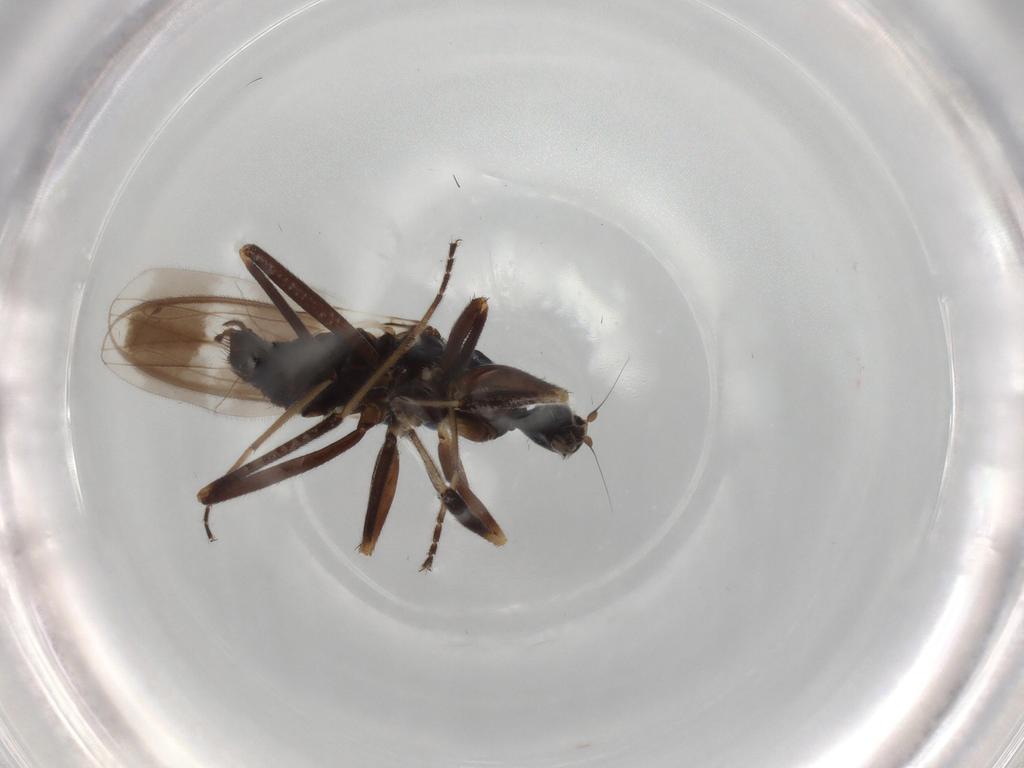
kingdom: Animalia
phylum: Arthropoda
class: Insecta
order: Diptera
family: Hybotidae
